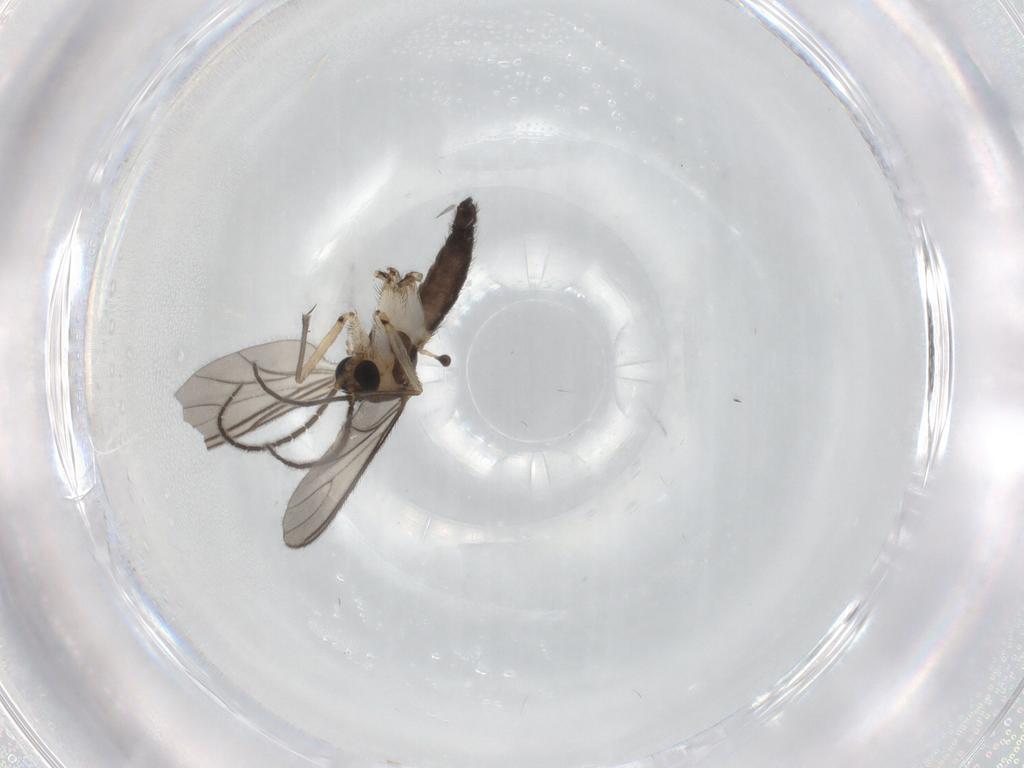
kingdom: Animalia
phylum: Arthropoda
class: Insecta
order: Diptera
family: Sciaridae
